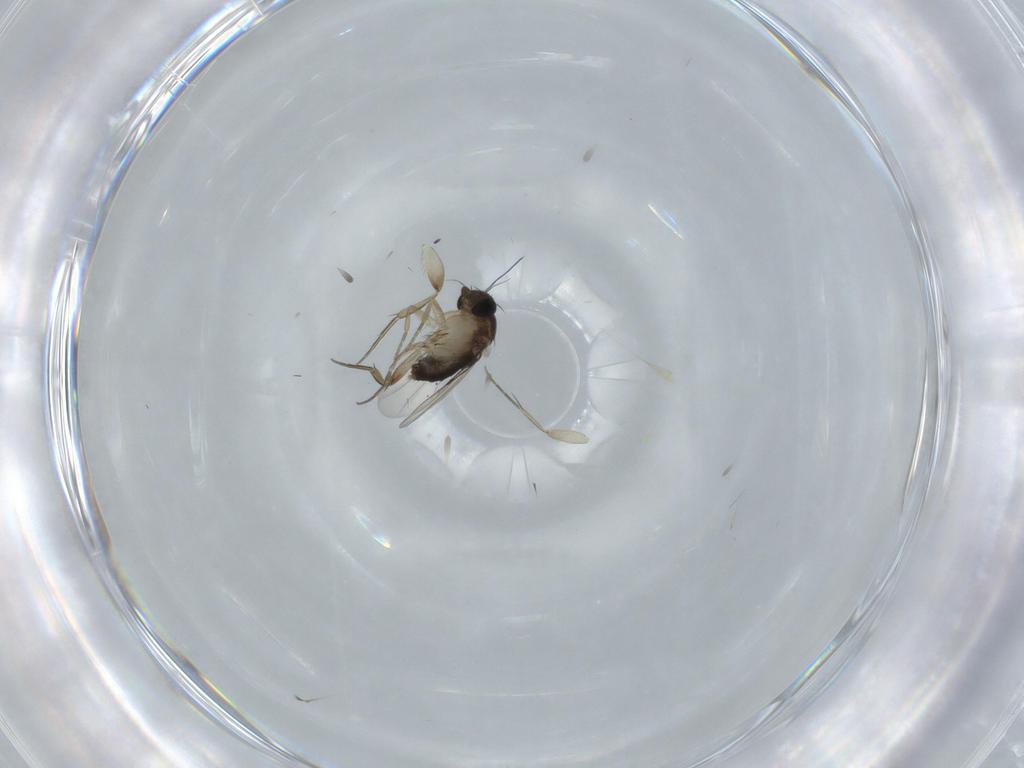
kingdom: Animalia
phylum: Arthropoda
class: Insecta
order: Diptera
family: Phoridae
